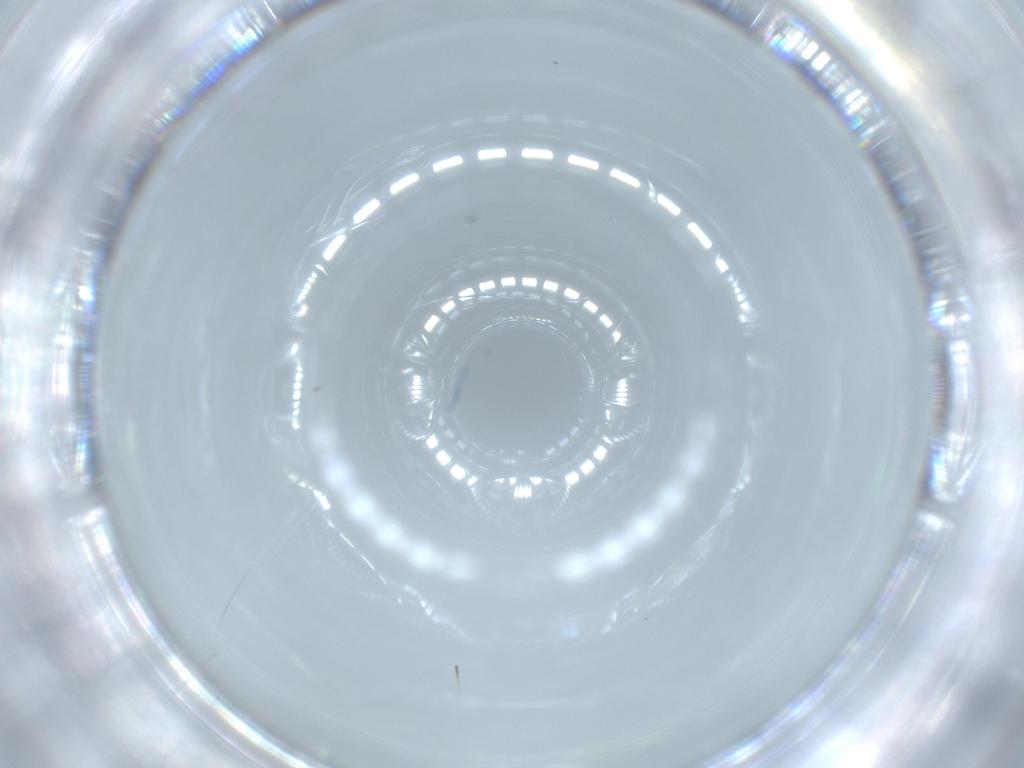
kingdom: Animalia
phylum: Arthropoda
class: Insecta
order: Diptera
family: Cecidomyiidae
